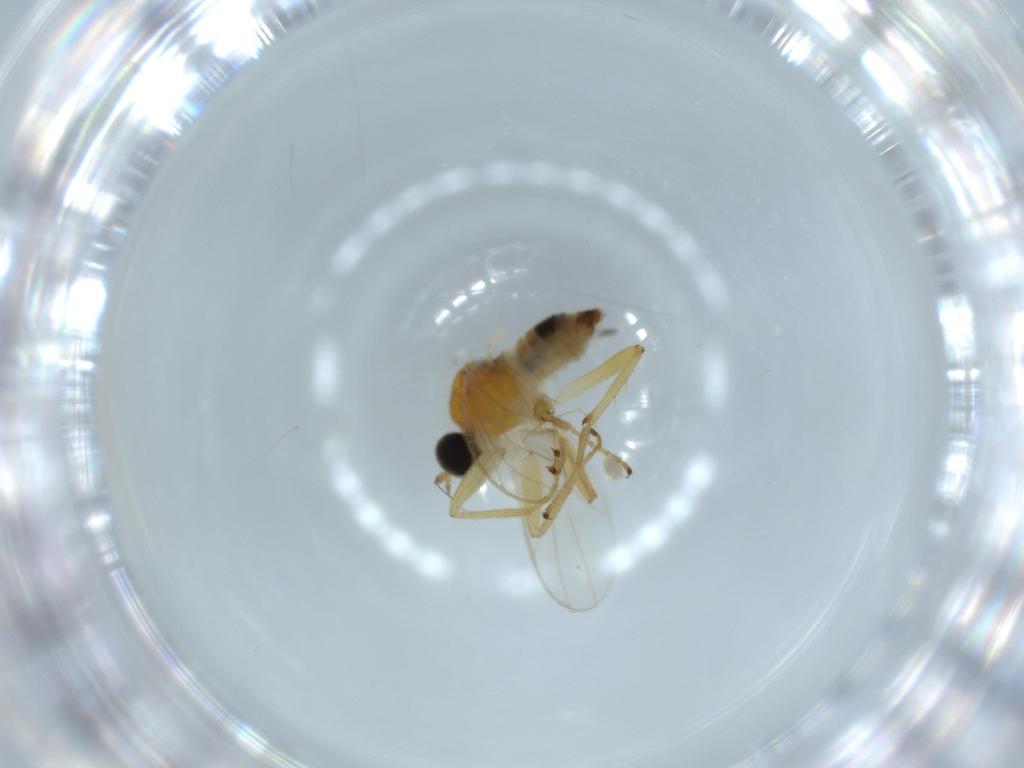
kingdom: Animalia
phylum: Arthropoda
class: Insecta
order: Diptera
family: Hybotidae
